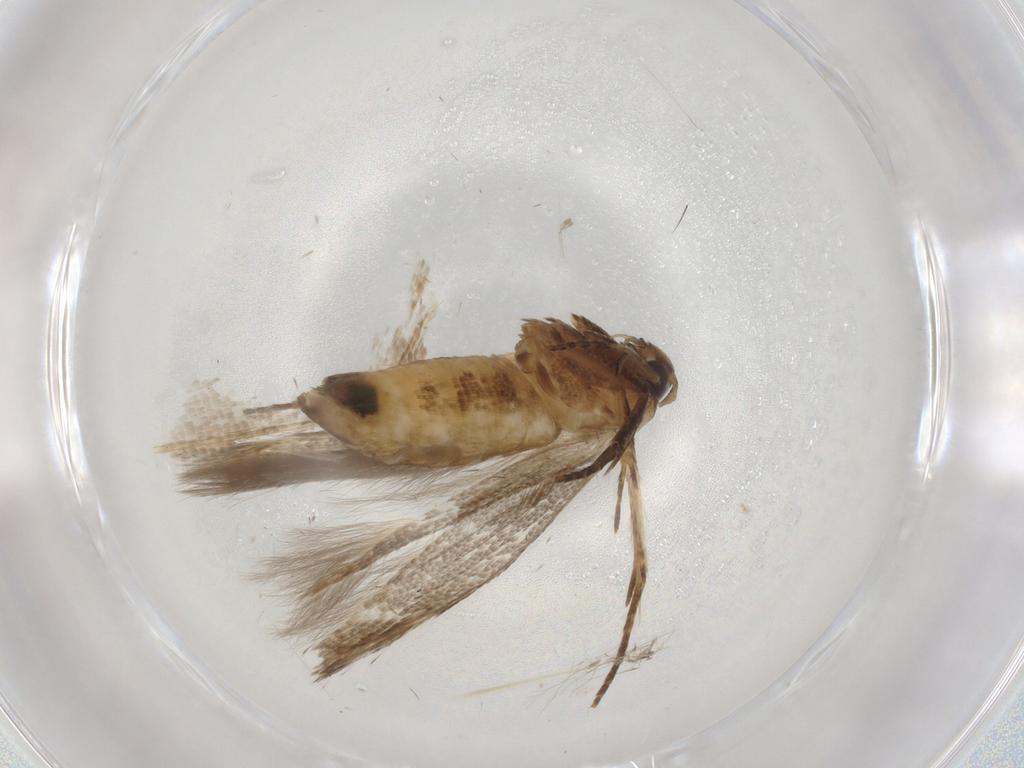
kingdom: Animalia
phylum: Arthropoda
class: Insecta
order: Lepidoptera
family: Cosmopterigidae
